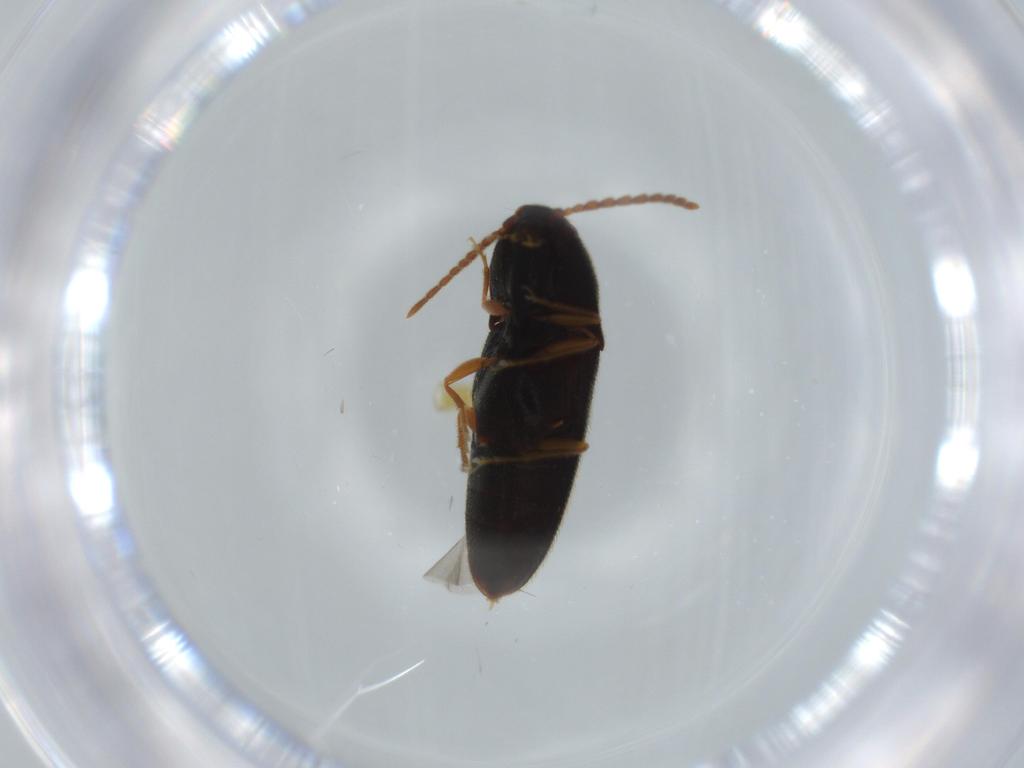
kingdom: Animalia
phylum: Arthropoda
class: Insecta
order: Coleoptera
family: Elateridae
